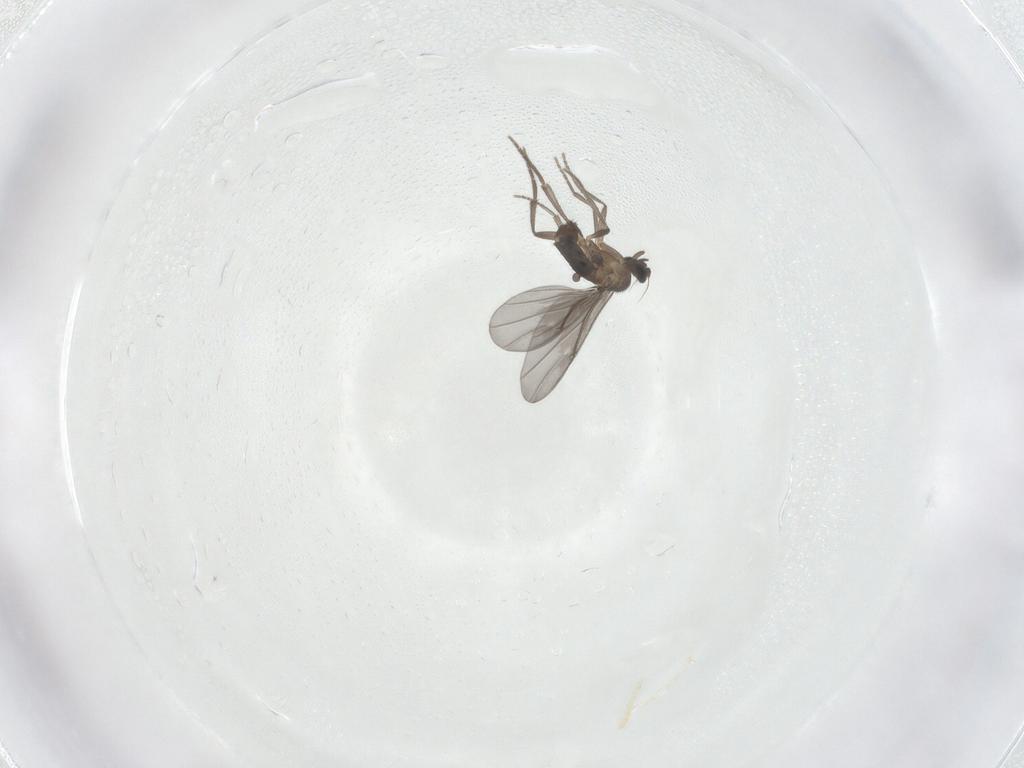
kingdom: Animalia
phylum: Arthropoda
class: Insecta
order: Diptera
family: Phoridae
